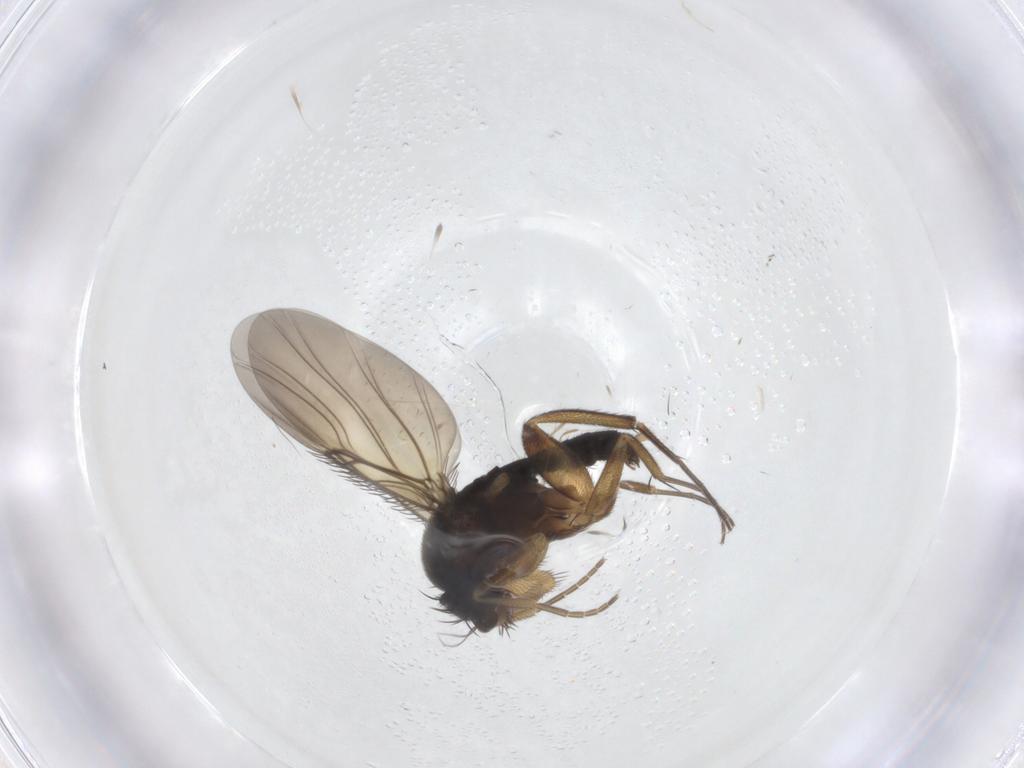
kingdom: Animalia
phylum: Arthropoda
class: Insecta
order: Diptera
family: Phoridae
